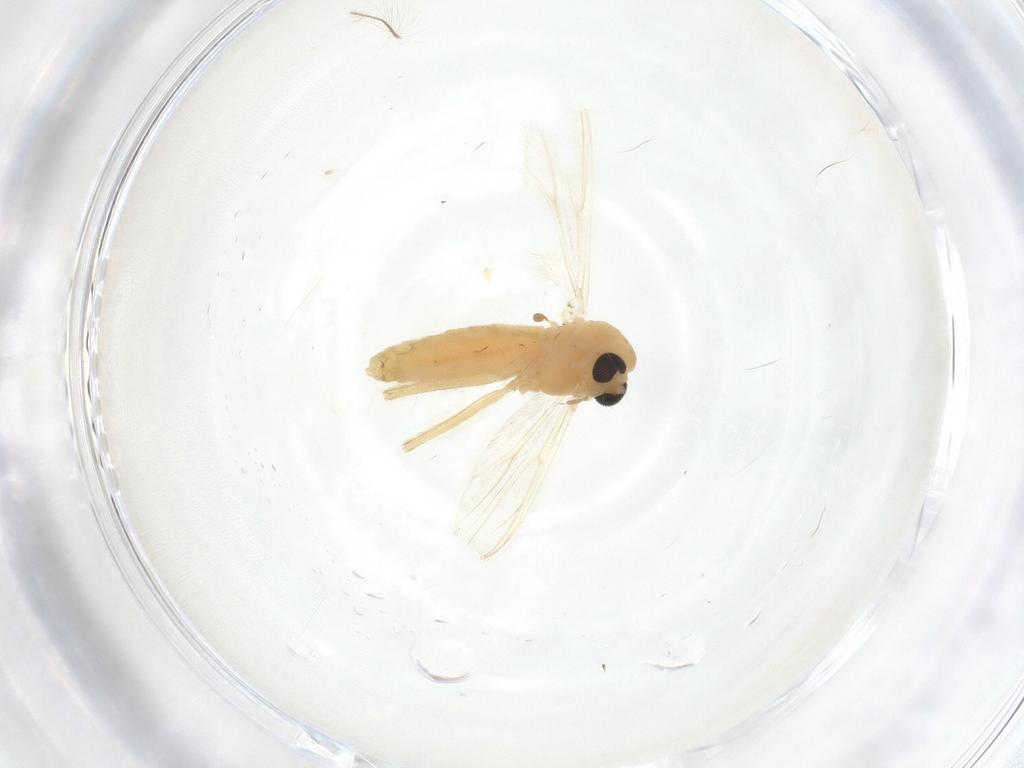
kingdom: Animalia
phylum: Arthropoda
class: Insecta
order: Diptera
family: Chironomidae
